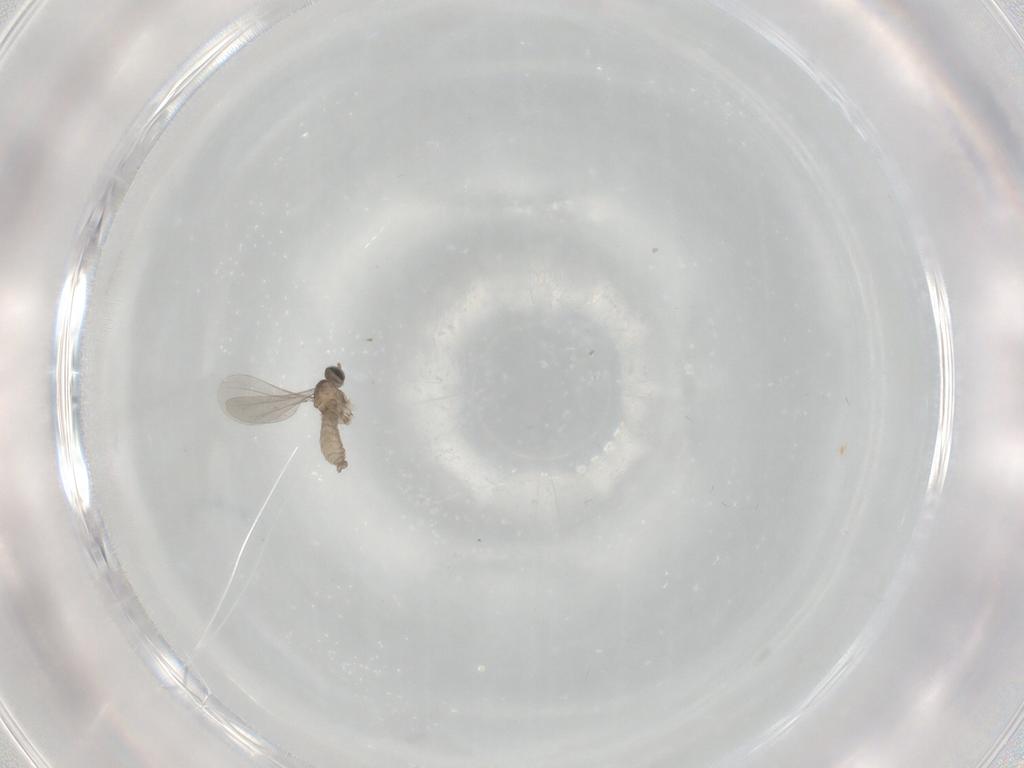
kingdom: Animalia
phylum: Arthropoda
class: Insecta
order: Diptera
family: Cecidomyiidae
